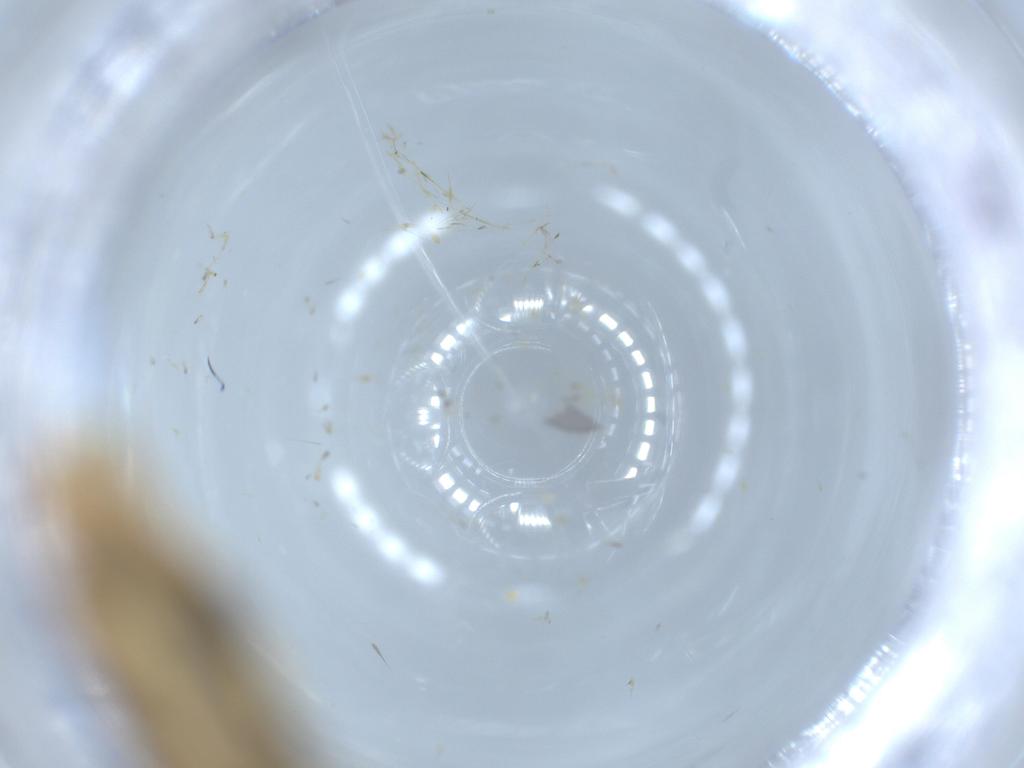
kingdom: Animalia
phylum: Arthropoda
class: Insecta
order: Lepidoptera
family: Tineidae
